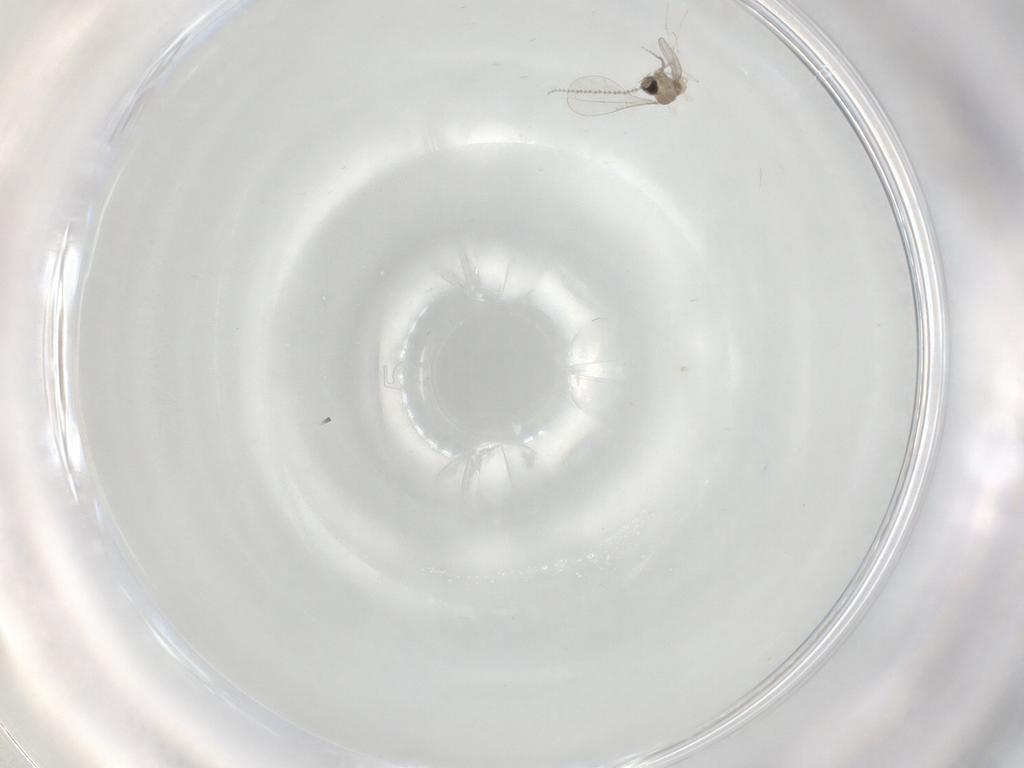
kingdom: Animalia
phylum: Arthropoda
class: Insecta
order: Diptera
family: Cecidomyiidae
